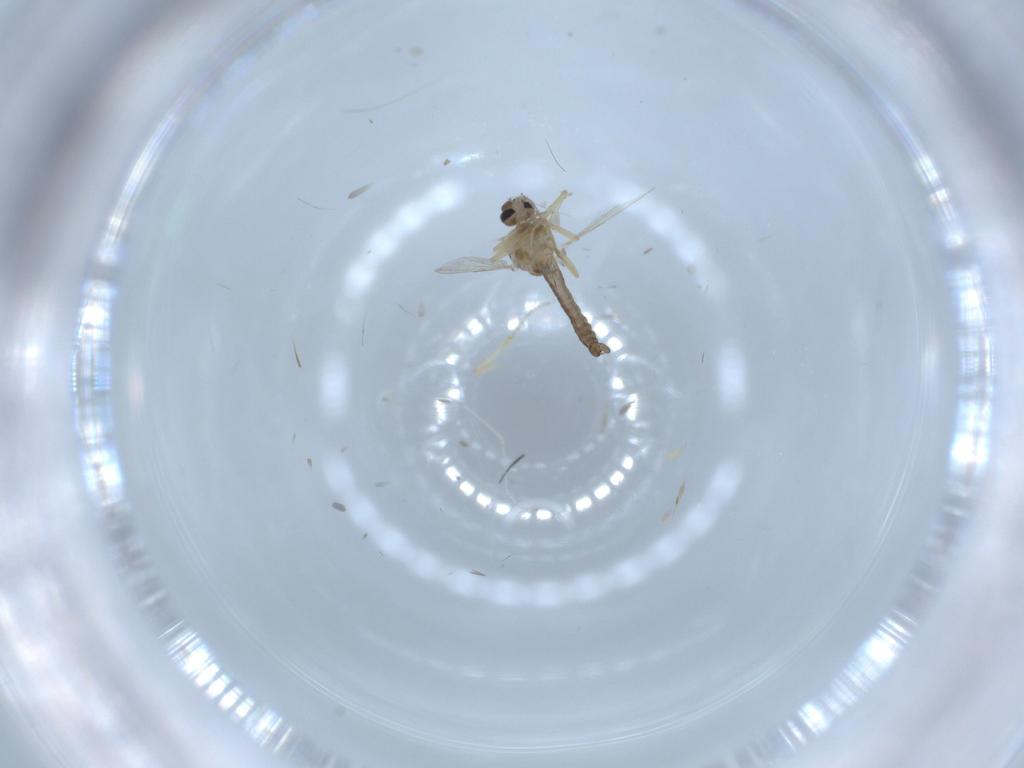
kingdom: Animalia
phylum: Arthropoda
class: Insecta
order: Diptera
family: Ceratopogonidae
